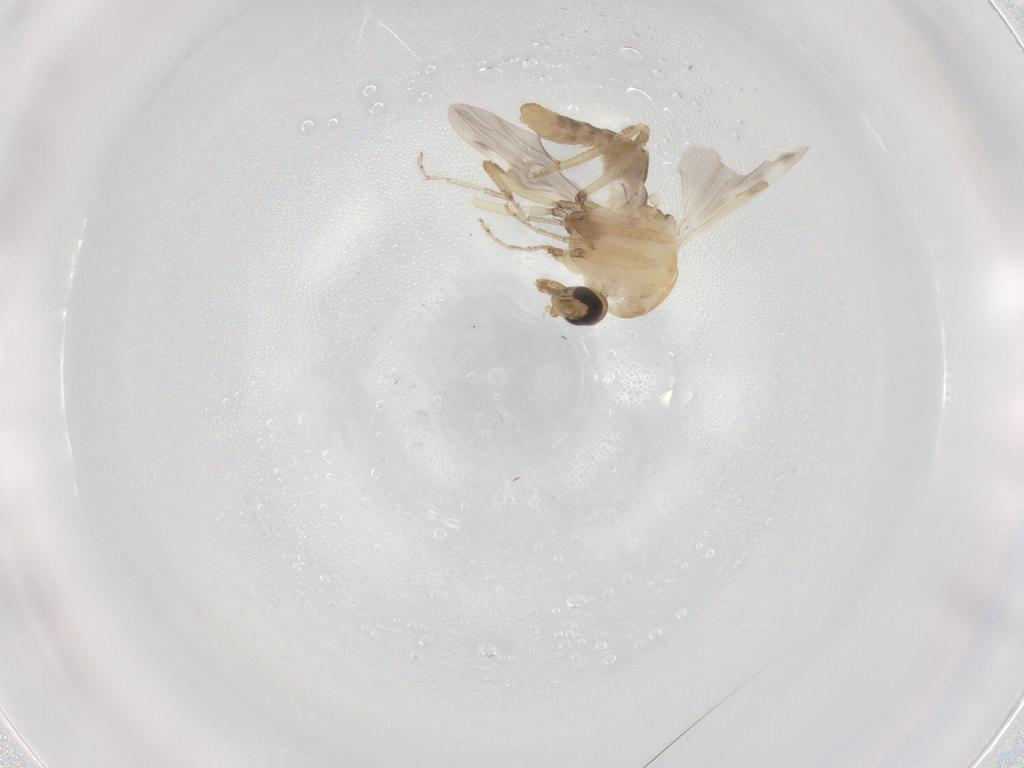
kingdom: Animalia
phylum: Arthropoda
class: Insecta
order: Diptera
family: Phoridae
